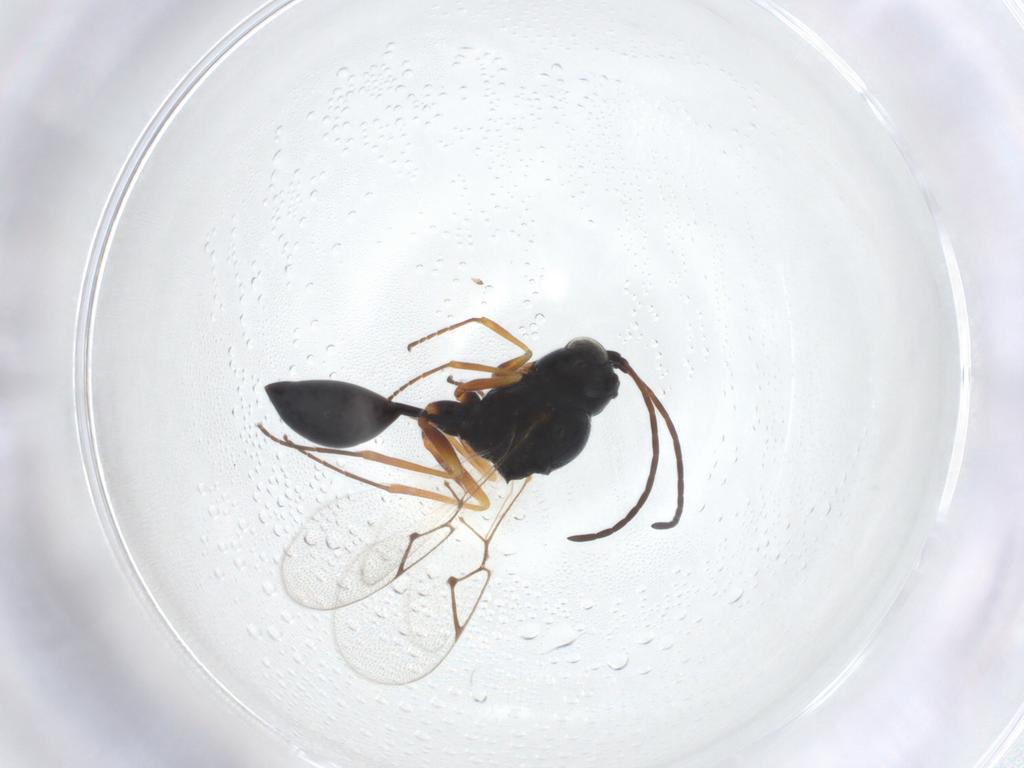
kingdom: Animalia
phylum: Arthropoda
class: Insecta
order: Hymenoptera
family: Figitidae
